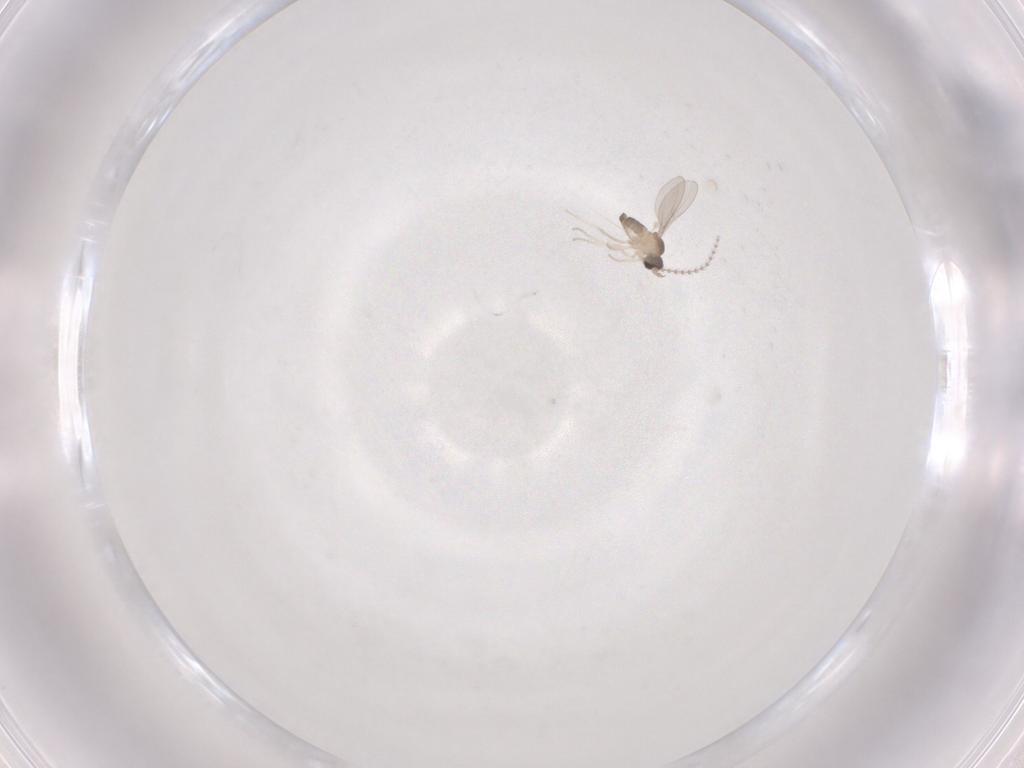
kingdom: Animalia
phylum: Arthropoda
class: Insecta
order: Diptera
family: Cecidomyiidae
